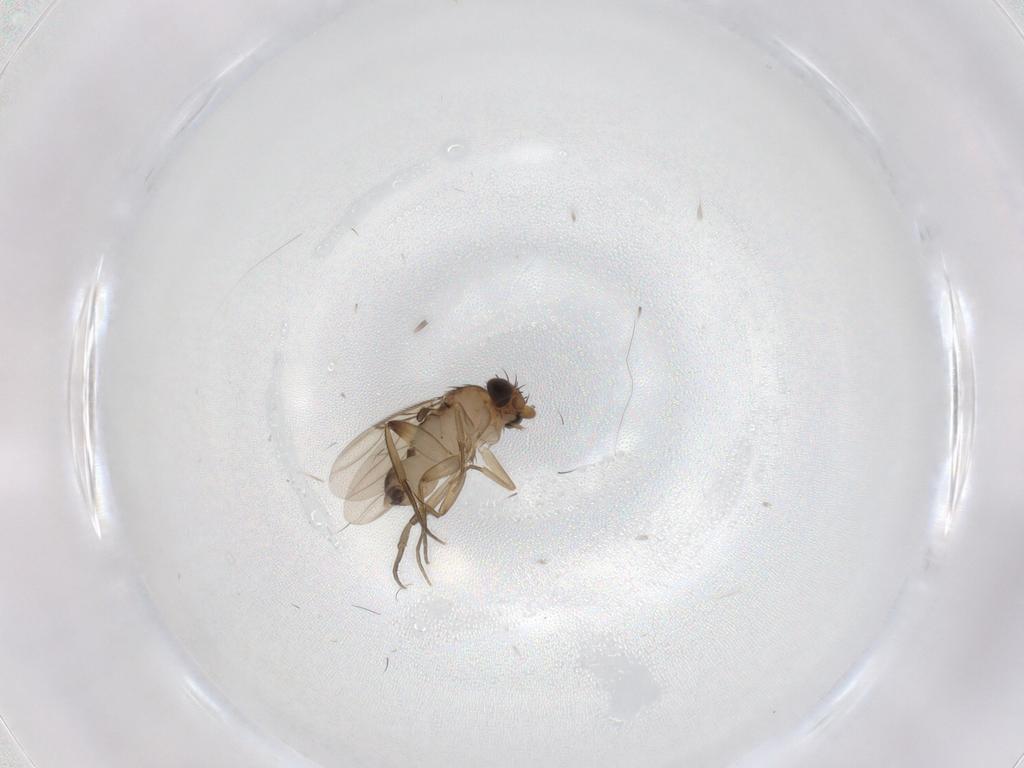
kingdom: Animalia
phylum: Arthropoda
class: Insecta
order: Diptera
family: Phoridae
